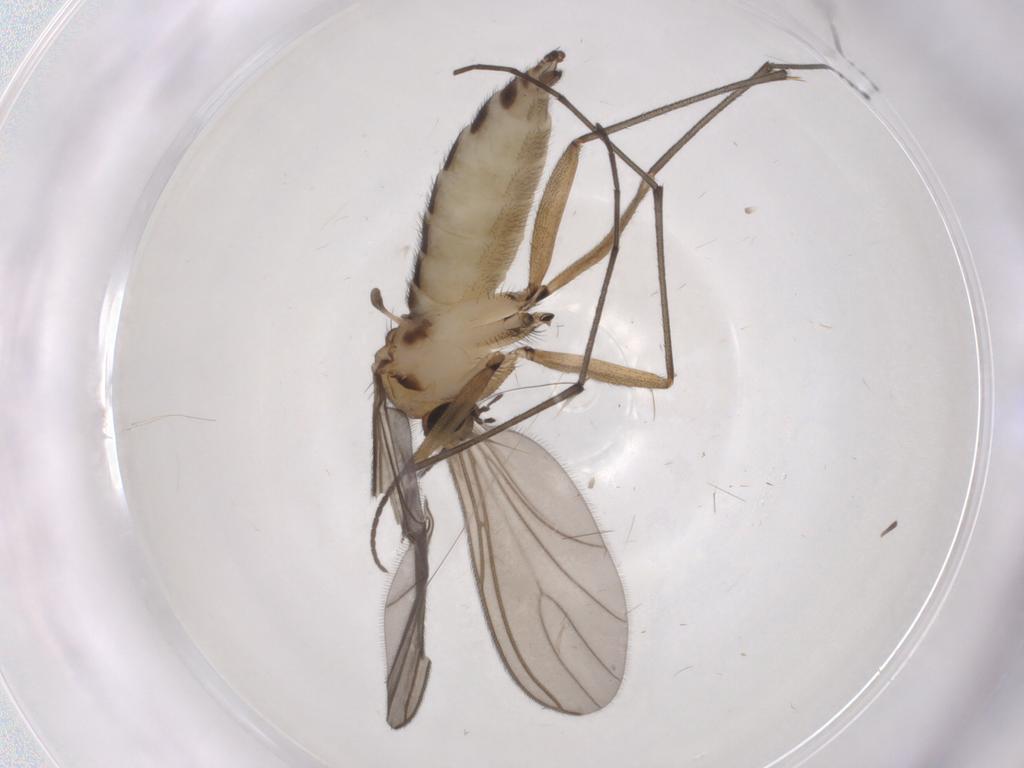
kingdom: Animalia
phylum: Arthropoda
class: Insecta
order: Diptera
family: Sciaridae
